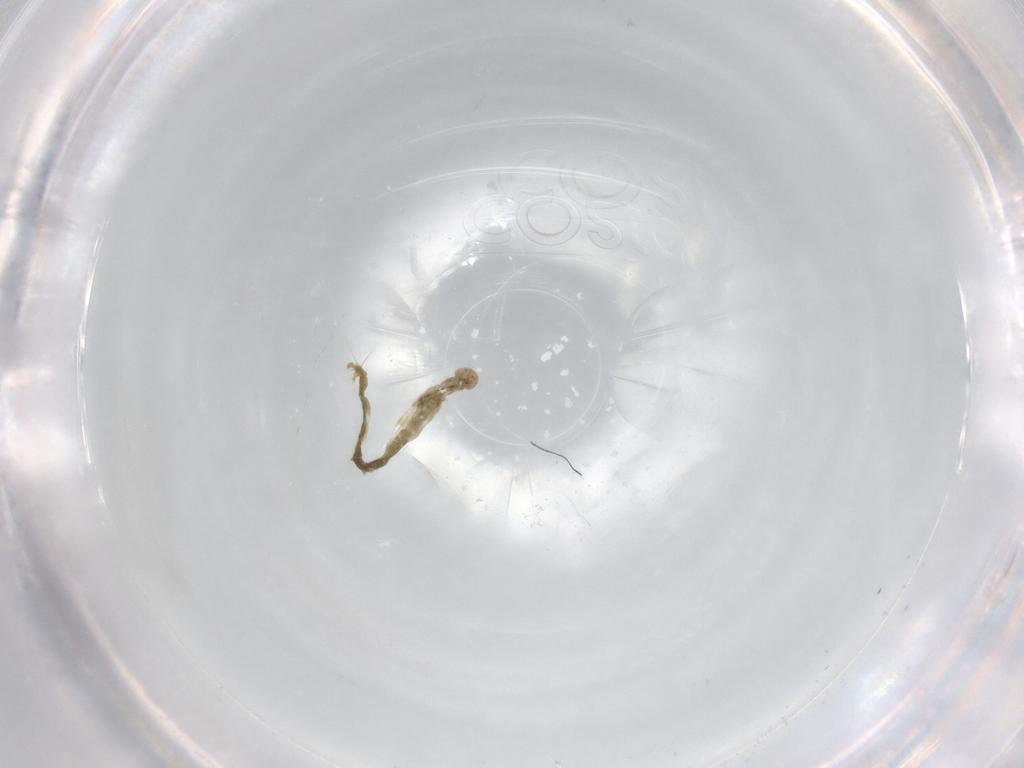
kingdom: Animalia
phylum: Arthropoda
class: Insecta
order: Diptera
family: Chironomidae
